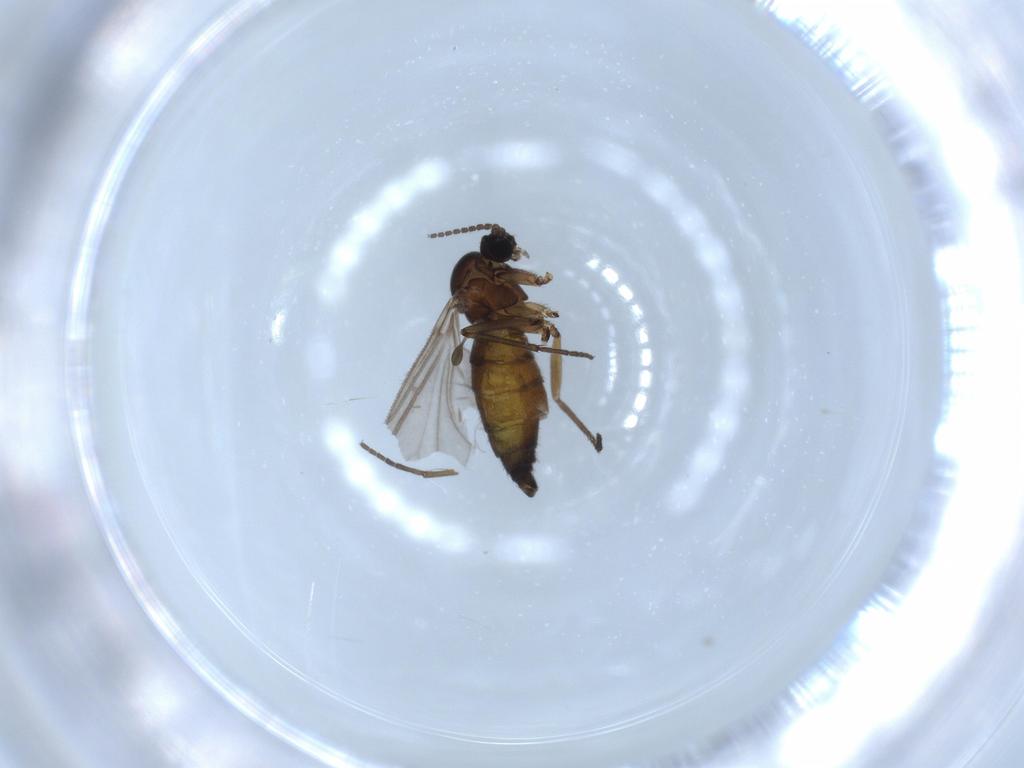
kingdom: Animalia
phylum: Arthropoda
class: Insecta
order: Diptera
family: Sciaridae
